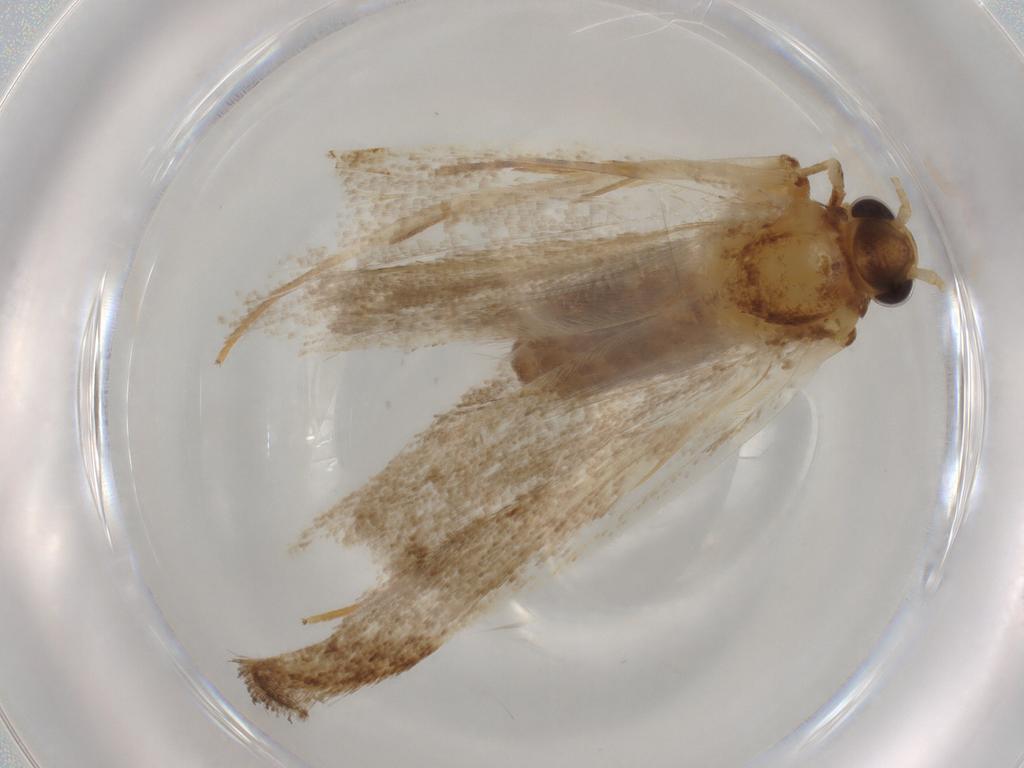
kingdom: Animalia
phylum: Arthropoda
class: Insecta
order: Lepidoptera
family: Lecithoceridae
